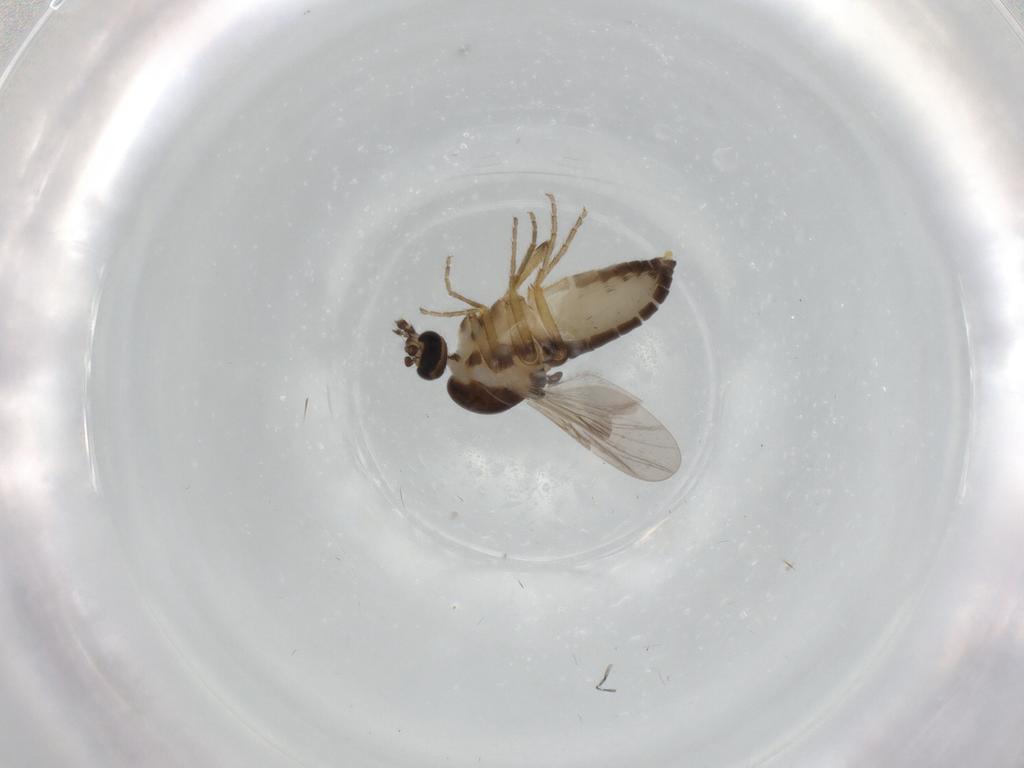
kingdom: Animalia
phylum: Arthropoda
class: Insecta
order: Diptera
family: Ceratopogonidae
